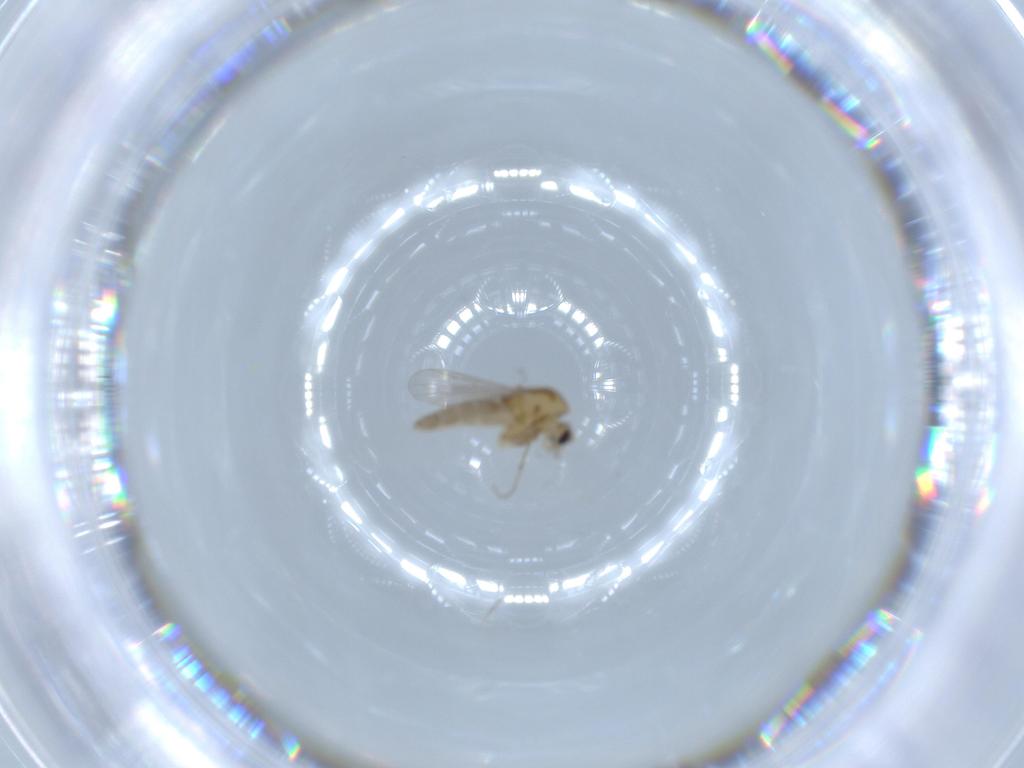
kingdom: Animalia
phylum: Arthropoda
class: Insecta
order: Diptera
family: Chironomidae
